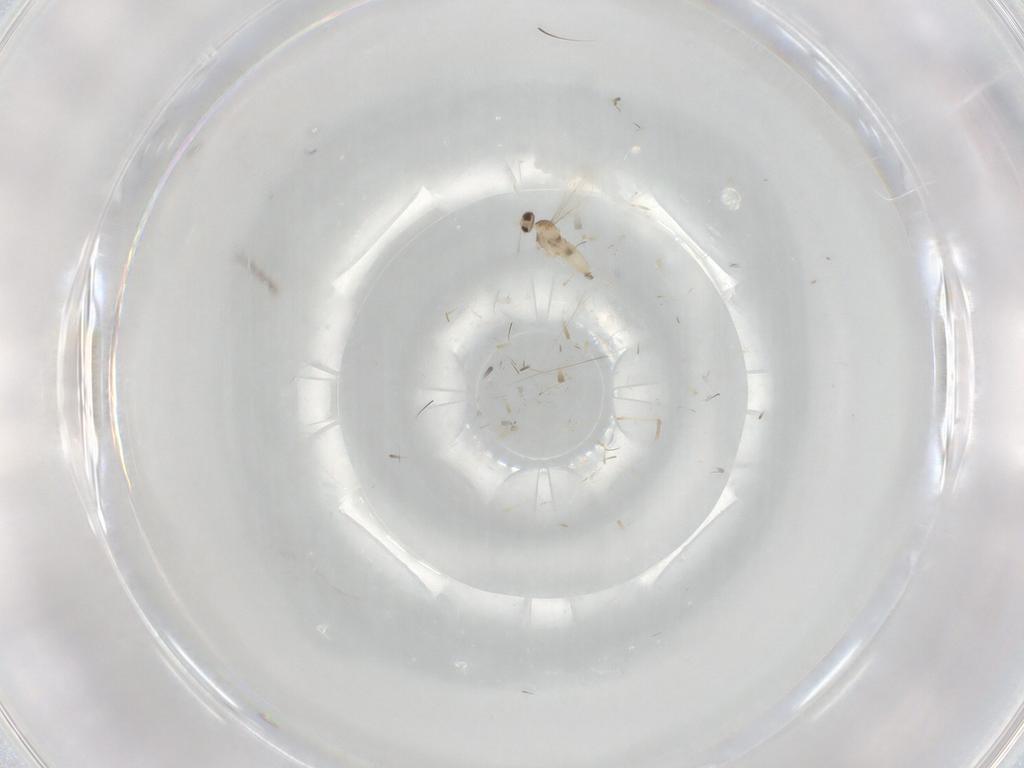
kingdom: Animalia
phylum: Arthropoda
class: Insecta
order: Diptera
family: Cecidomyiidae
